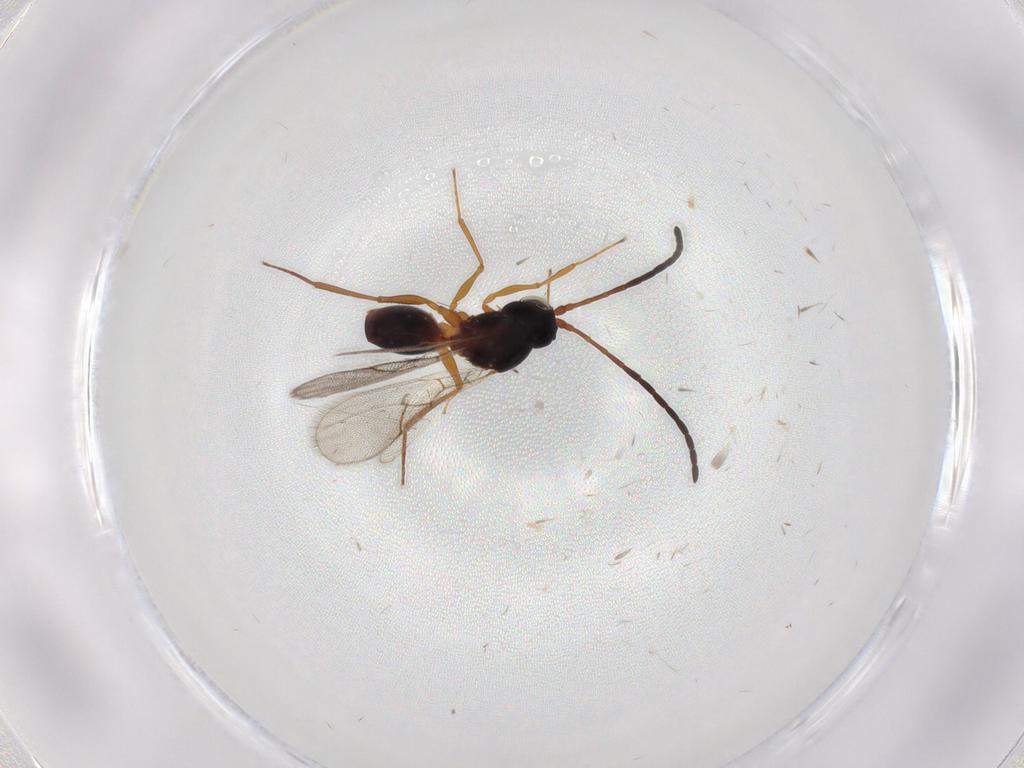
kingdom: Animalia
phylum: Arthropoda
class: Insecta
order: Hymenoptera
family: Figitidae
